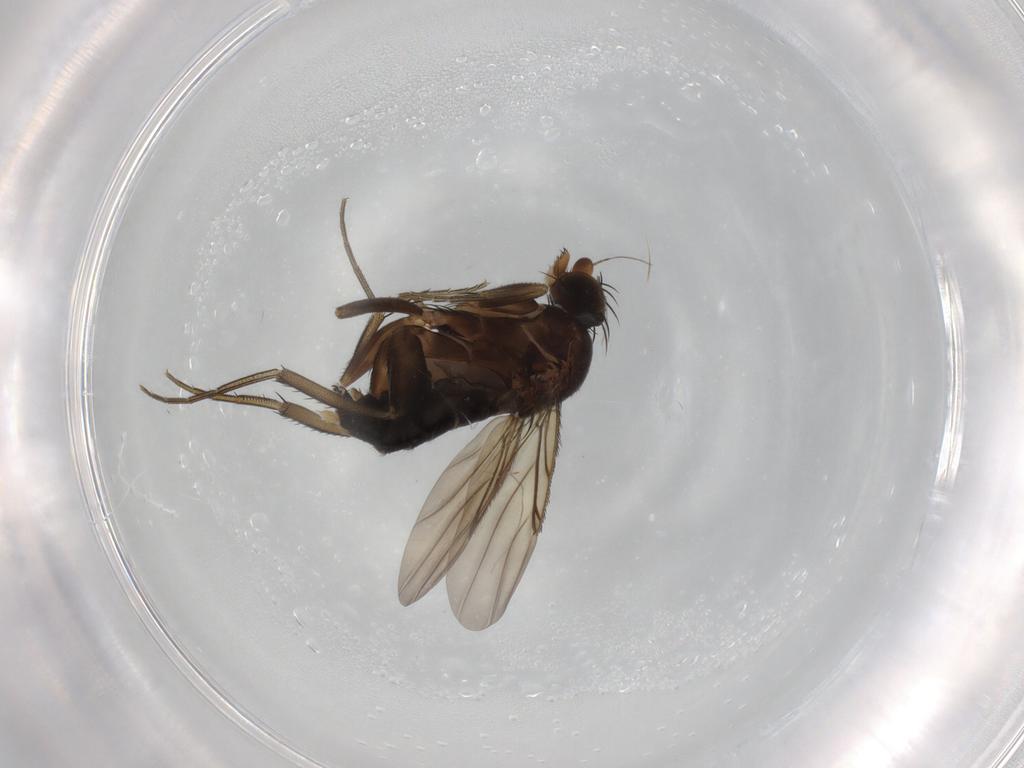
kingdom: Animalia
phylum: Arthropoda
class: Insecta
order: Diptera
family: Phoridae
